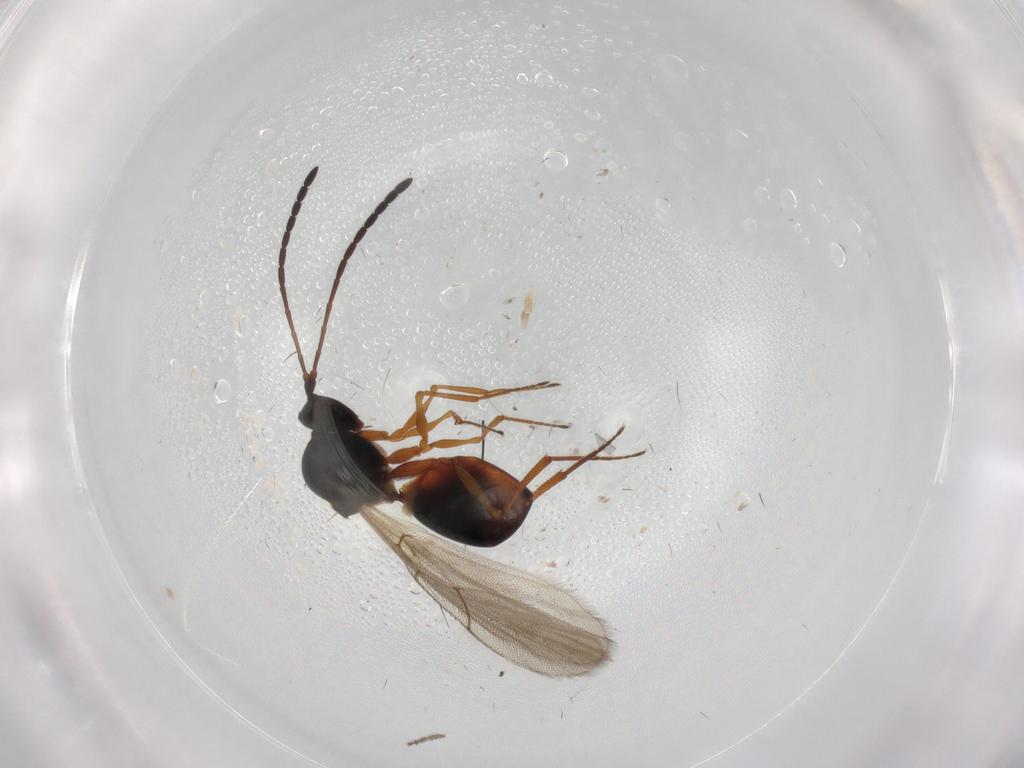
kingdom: Animalia
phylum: Arthropoda
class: Insecta
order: Hymenoptera
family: Figitidae
